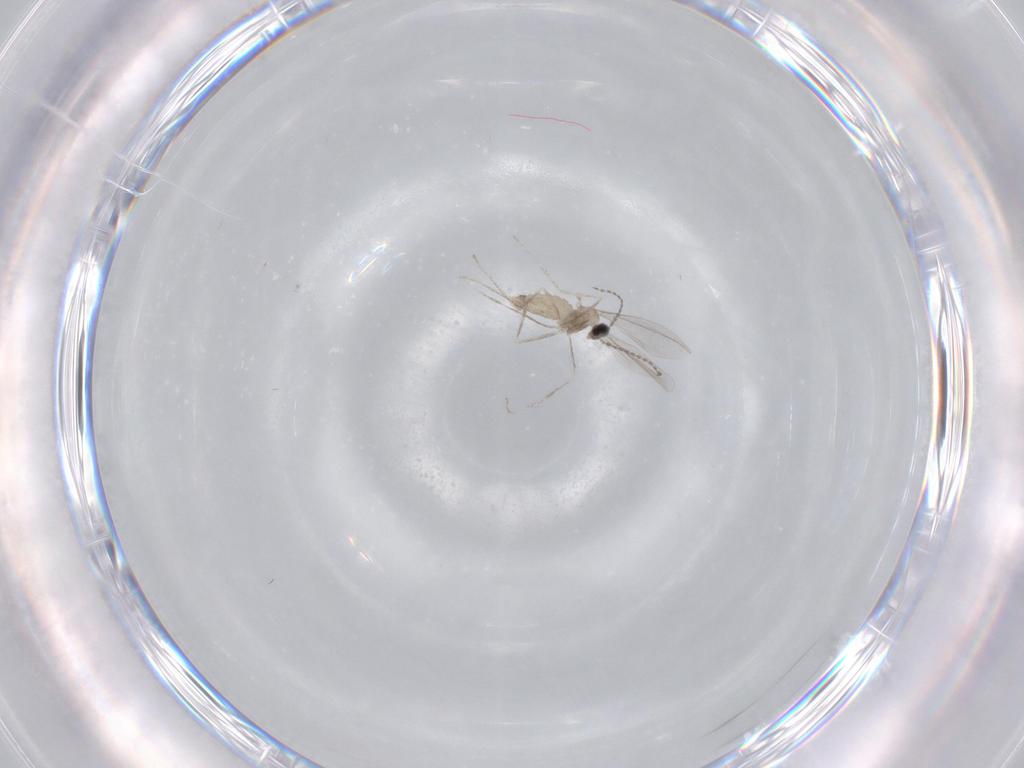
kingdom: Animalia
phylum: Arthropoda
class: Insecta
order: Diptera
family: Cecidomyiidae
